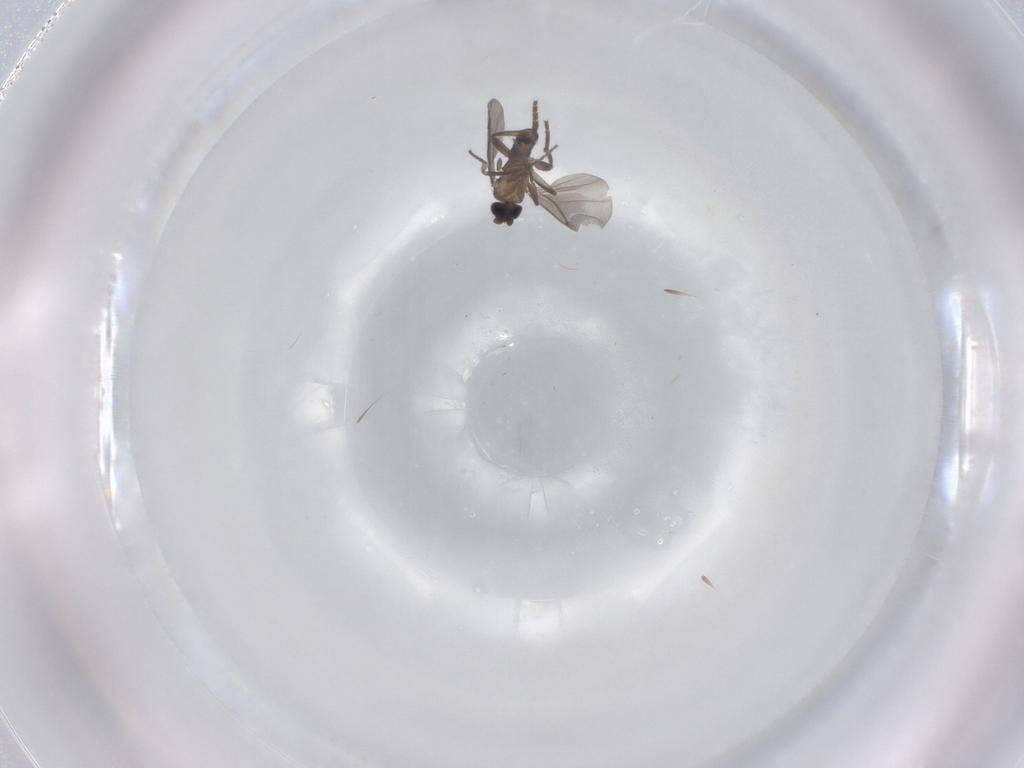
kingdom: Animalia
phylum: Arthropoda
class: Insecta
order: Diptera
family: Phoridae
